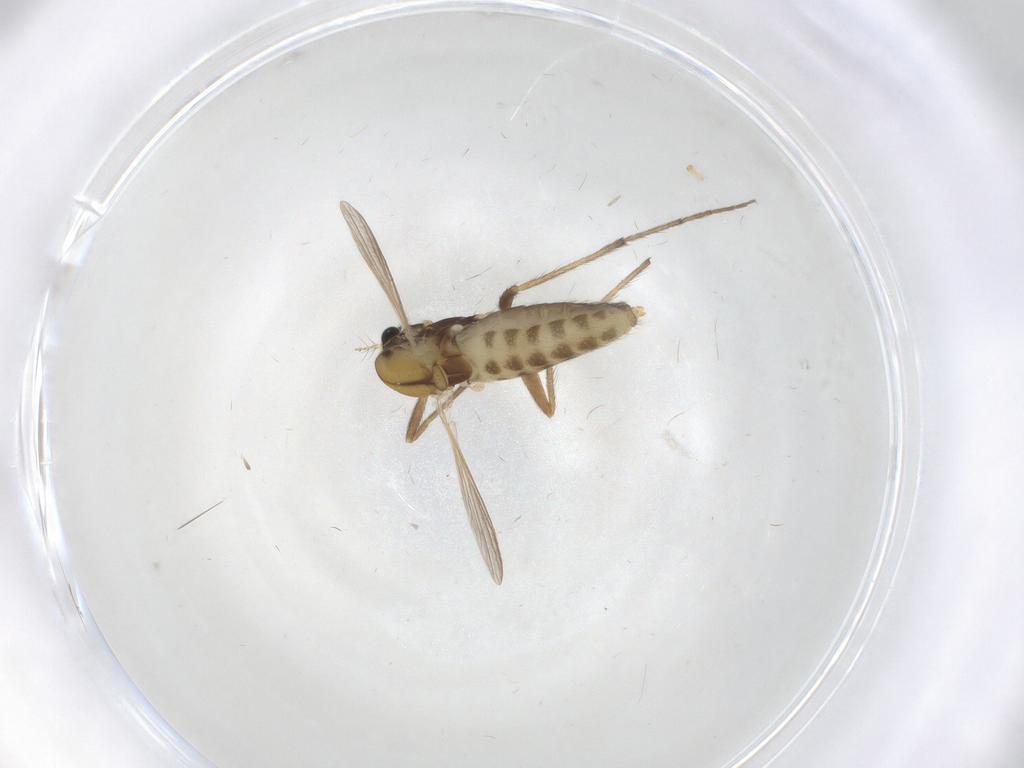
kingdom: Animalia
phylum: Arthropoda
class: Insecta
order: Diptera
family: Chironomidae
